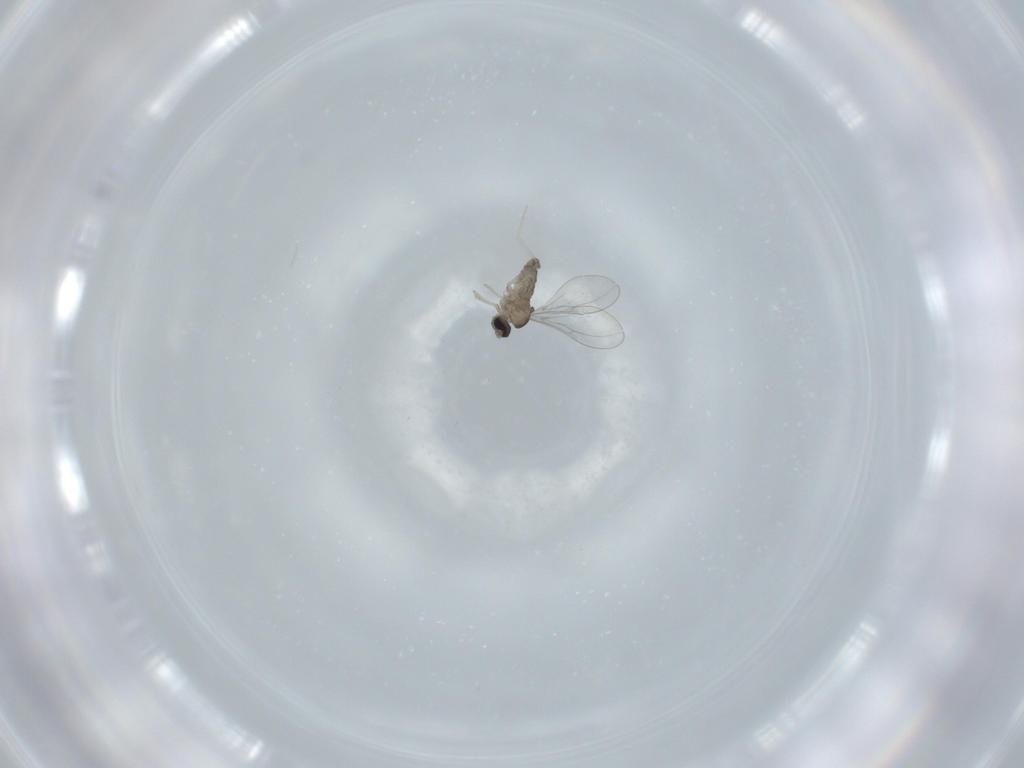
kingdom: Animalia
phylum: Arthropoda
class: Insecta
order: Diptera
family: Cecidomyiidae
